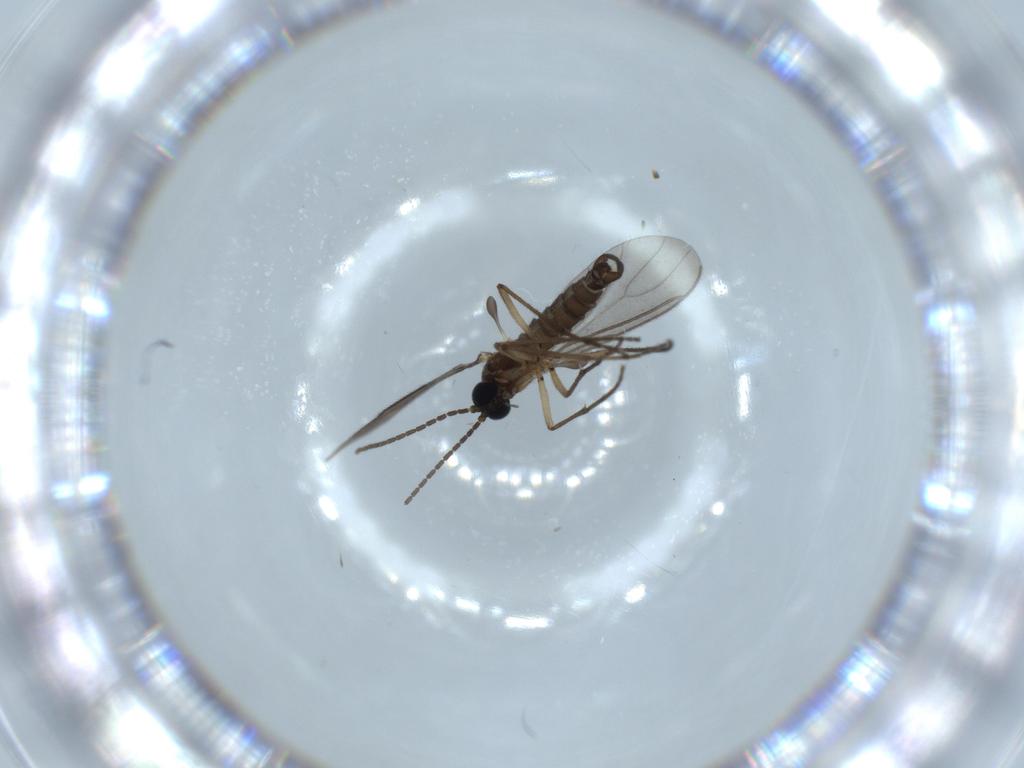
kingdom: Animalia
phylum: Arthropoda
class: Insecta
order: Diptera
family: Sciaridae
